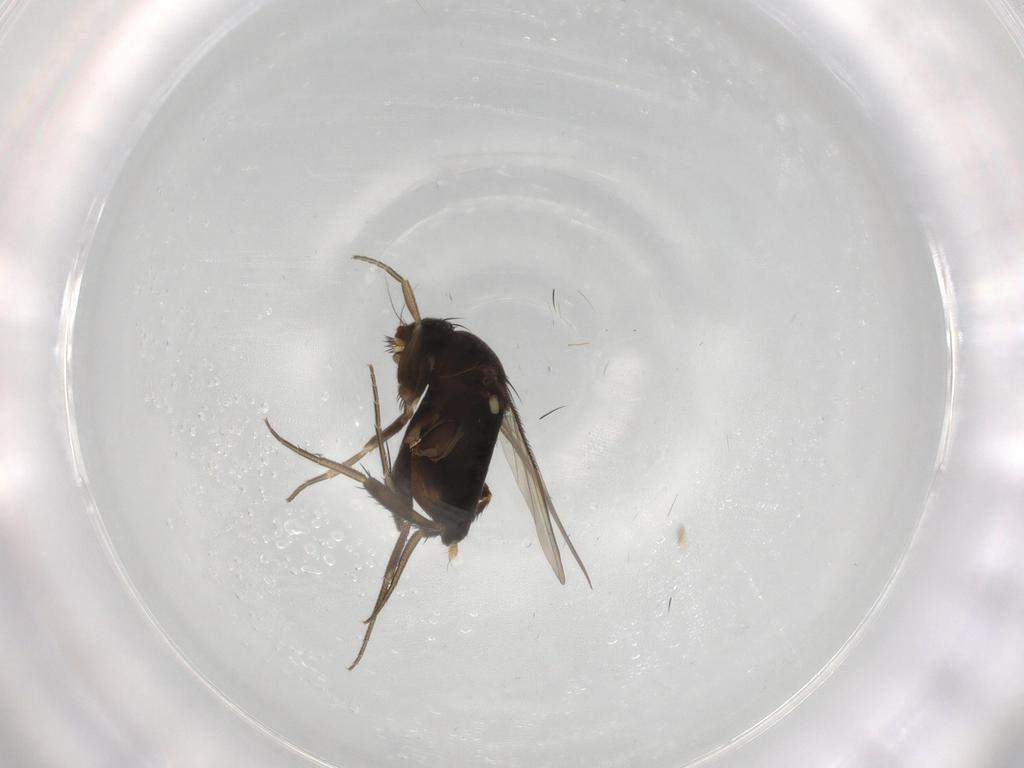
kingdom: Animalia
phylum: Arthropoda
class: Insecta
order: Diptera
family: Phoridae
